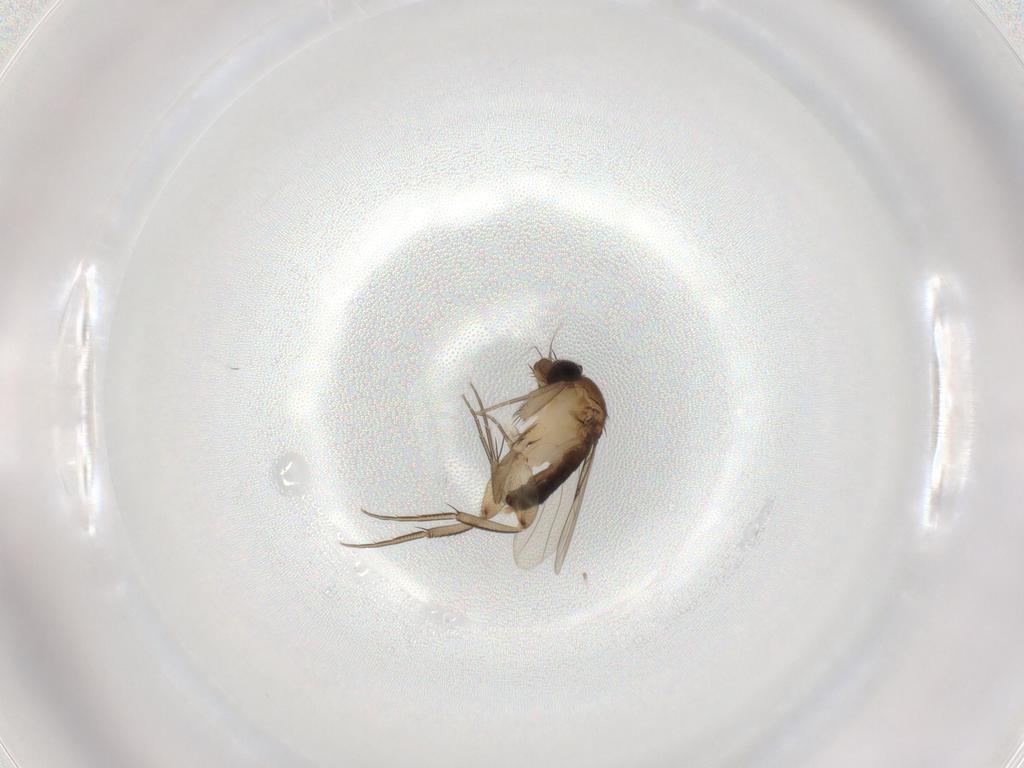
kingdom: Animalia
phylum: Arthropoda
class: Insecta
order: Diptera
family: Phoridae
